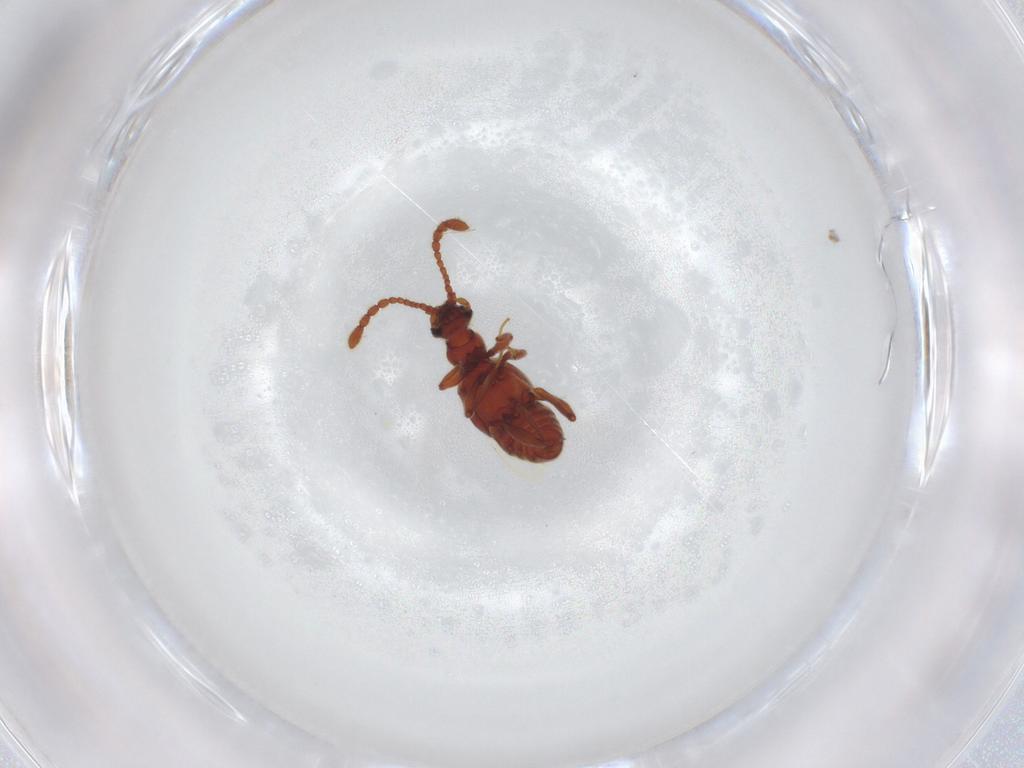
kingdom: Animalia
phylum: Arthropoda
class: Insecta
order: Coleoptera
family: Staphylinidae
